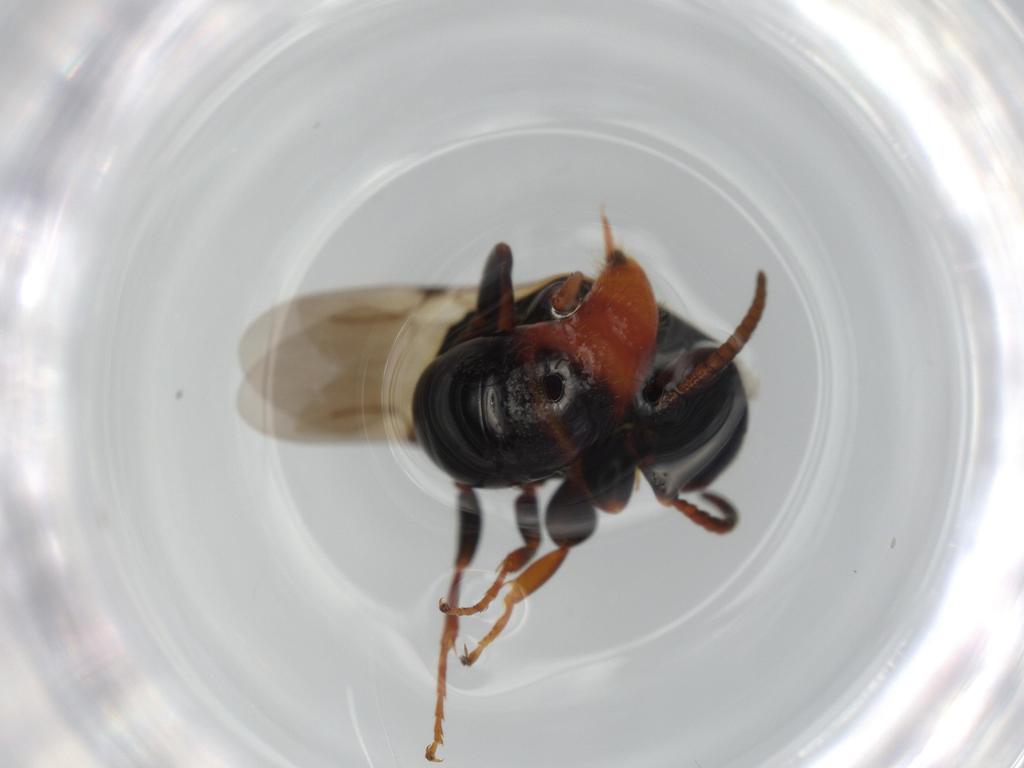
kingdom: Animalia
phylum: Arthropoda
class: Insecta
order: Hymenoptera
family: Bethylidae
